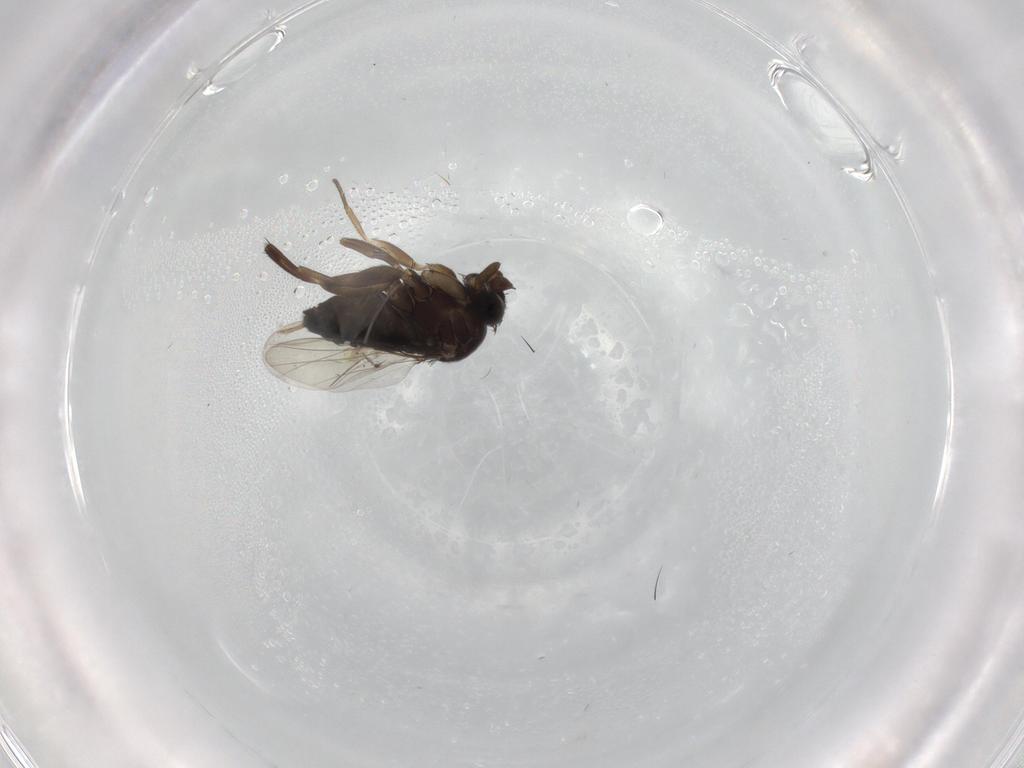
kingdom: Animalia
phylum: Arthropoda
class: Insecta
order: Diptera
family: Phoridae
